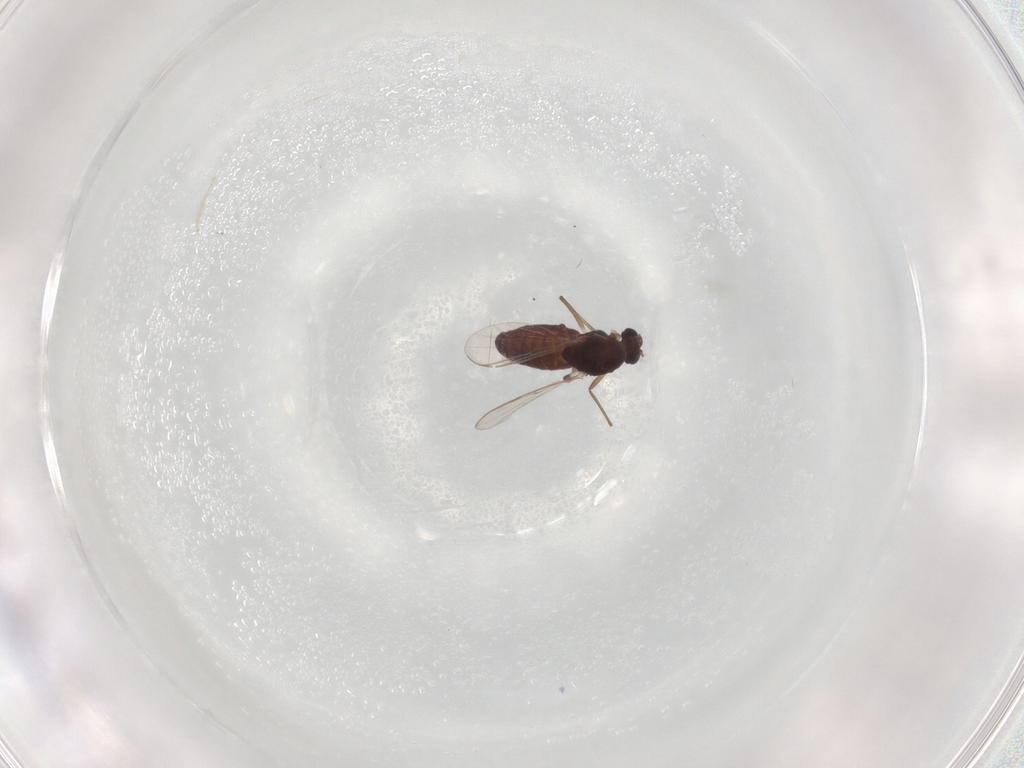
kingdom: Animalia
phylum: Arthropoda
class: Insecta
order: Diptera
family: Chironomidae
